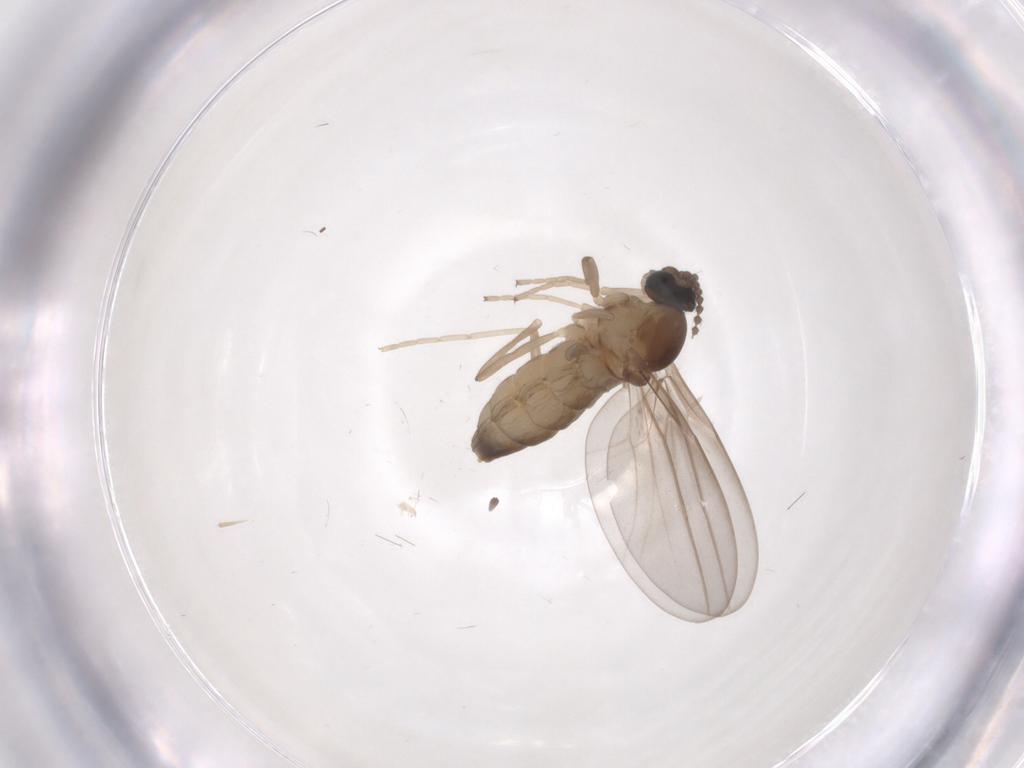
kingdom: Animalia
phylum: Arthropoda
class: Insecta
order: Diptera
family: Cecidomyiidae
